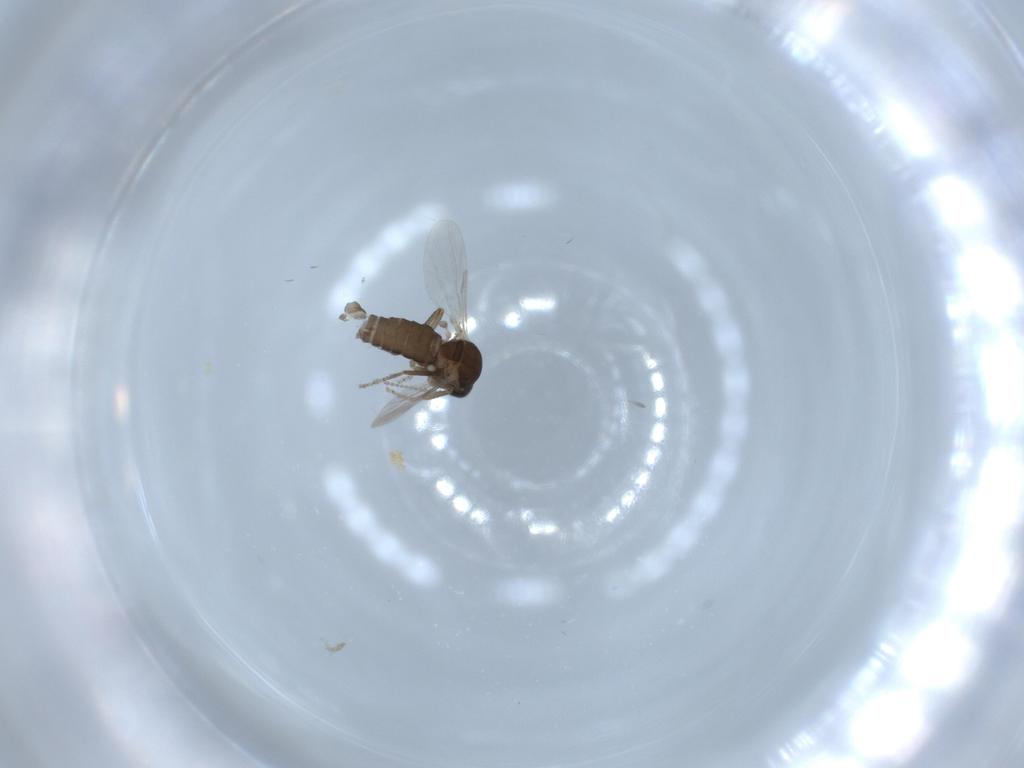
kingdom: Animalia
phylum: Arthropoda
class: Insecta
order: Diptera
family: Ceratopogonidae
